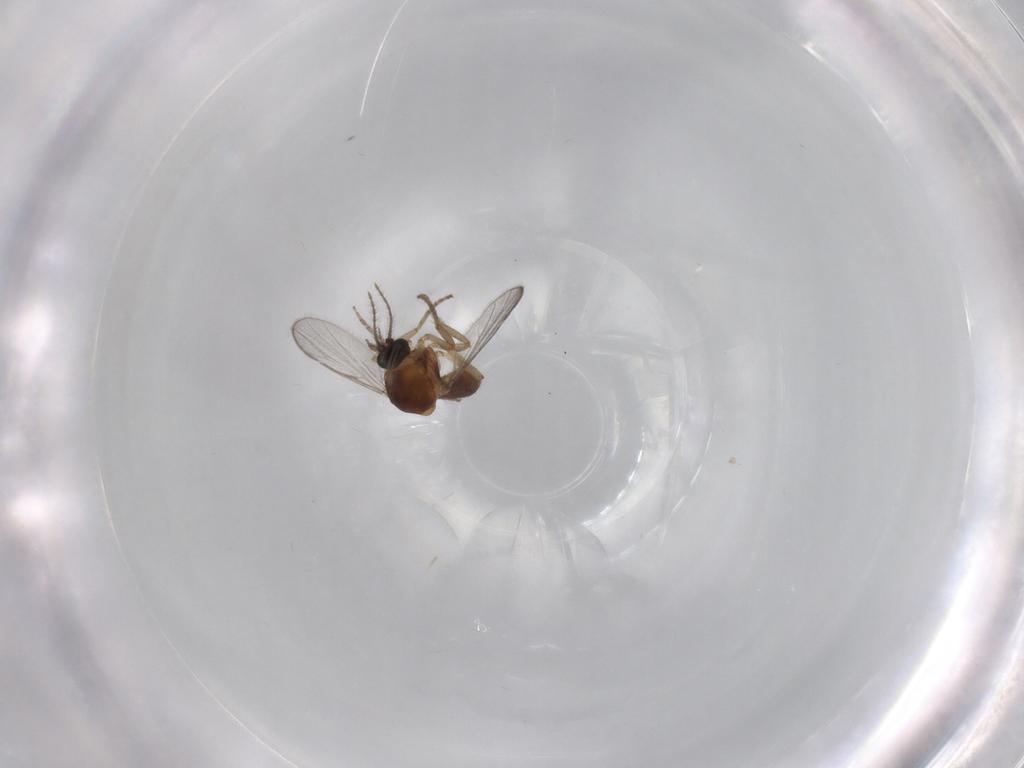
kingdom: Animalia
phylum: Arthropoda
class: Insecta
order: Diptera
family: Ceratopogonidae
